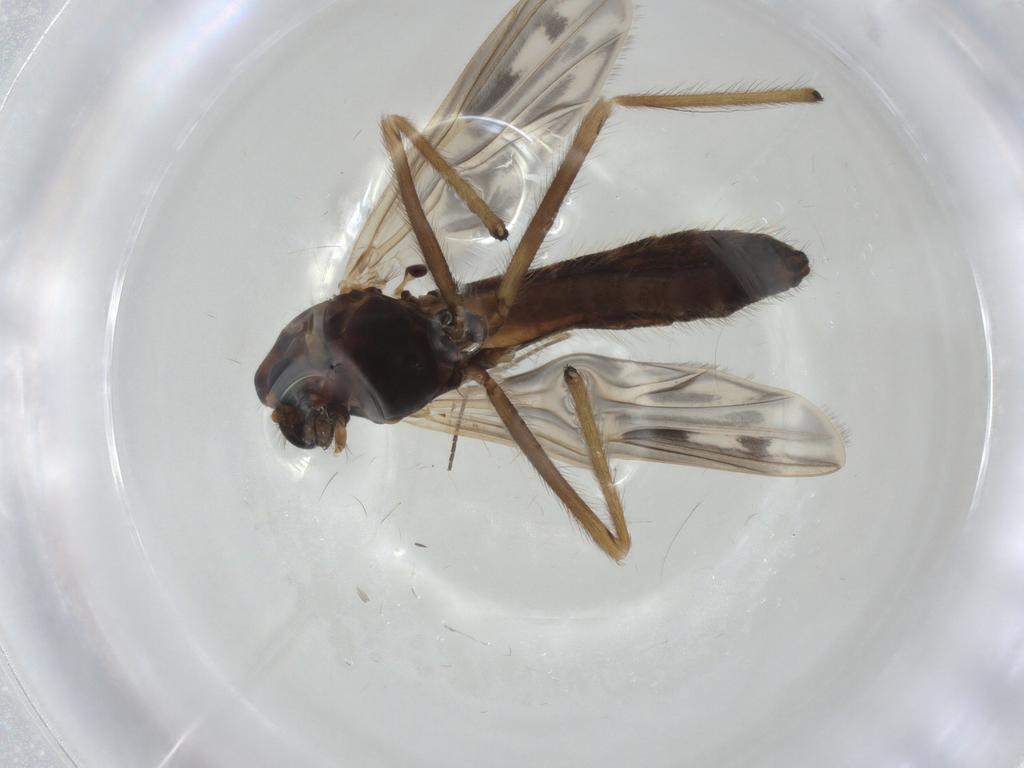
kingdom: Animalia
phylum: Arthropoda
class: Insecta
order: Diptera
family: Chironomidae
